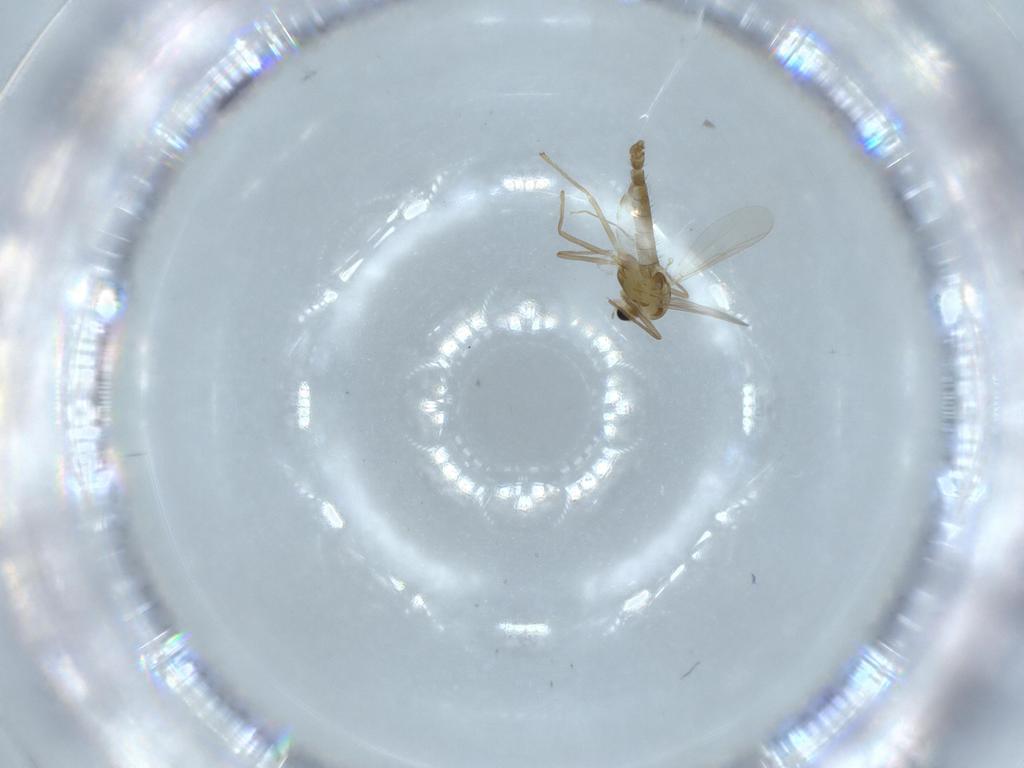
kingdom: Animalia
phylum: Arthropoda
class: Insecta
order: Diptera
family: Chironomidae
